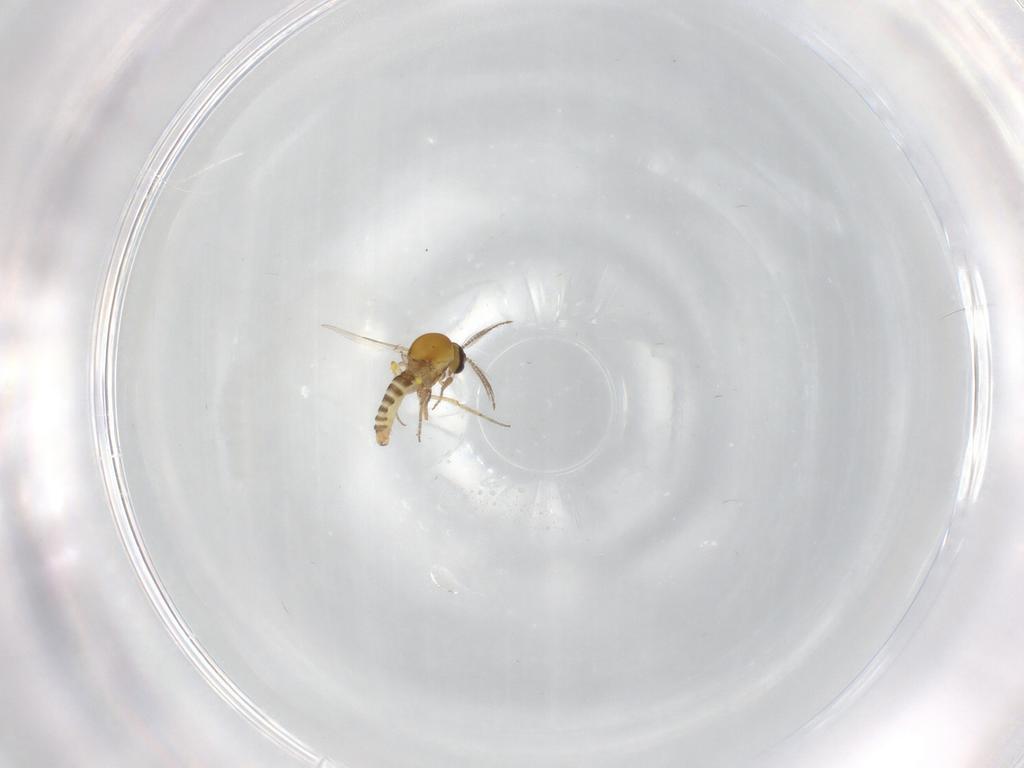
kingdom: Animalia
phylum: Arthropoda
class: Insecta
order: Diptera
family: Ceratopogonidae
